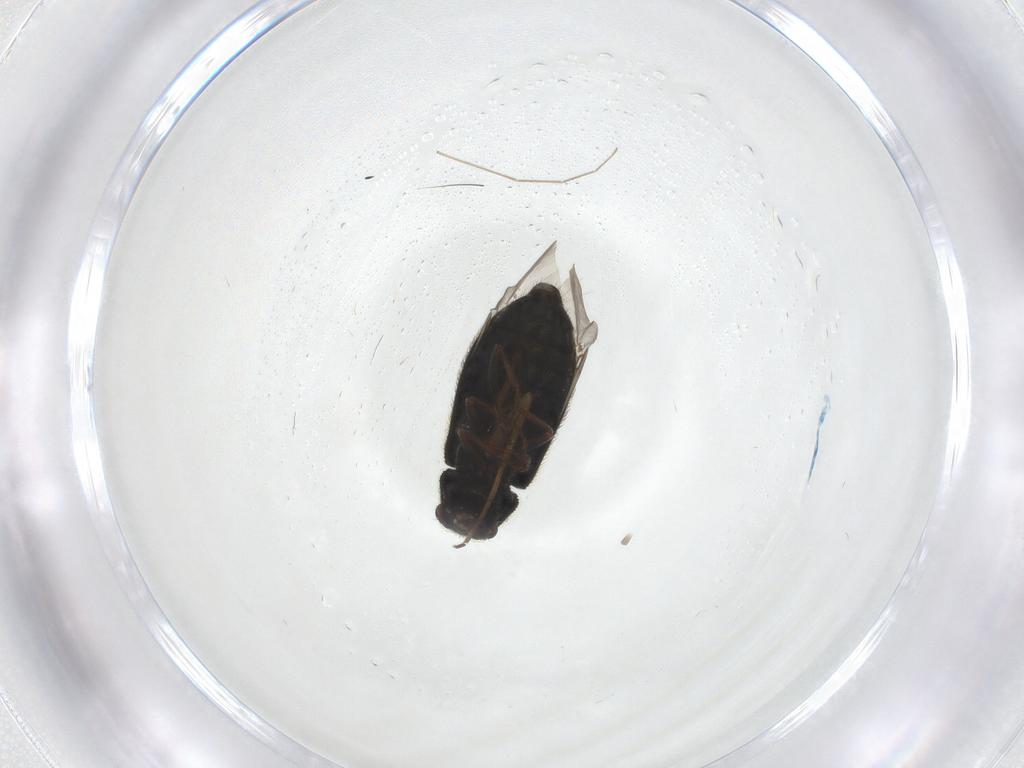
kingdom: Animalia
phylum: Arthropoda
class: Insecta
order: Coleoptera
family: Melyridae
